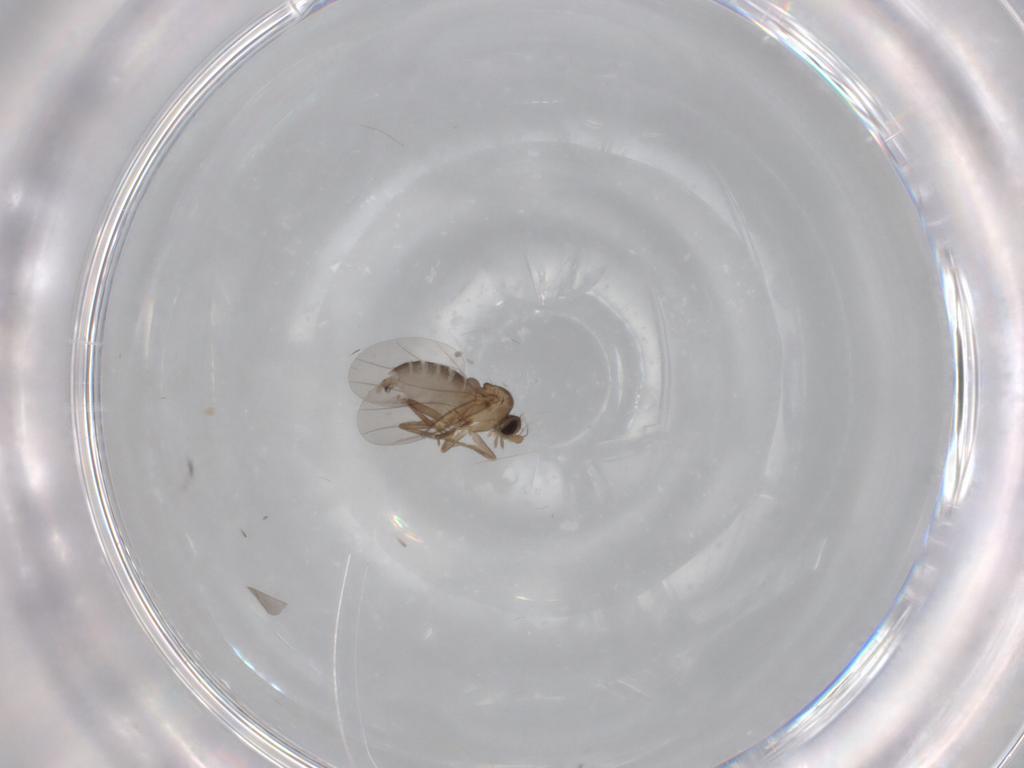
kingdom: Animalia
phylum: Arthropoda
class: Insecta
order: Diptera
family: Phoridae
